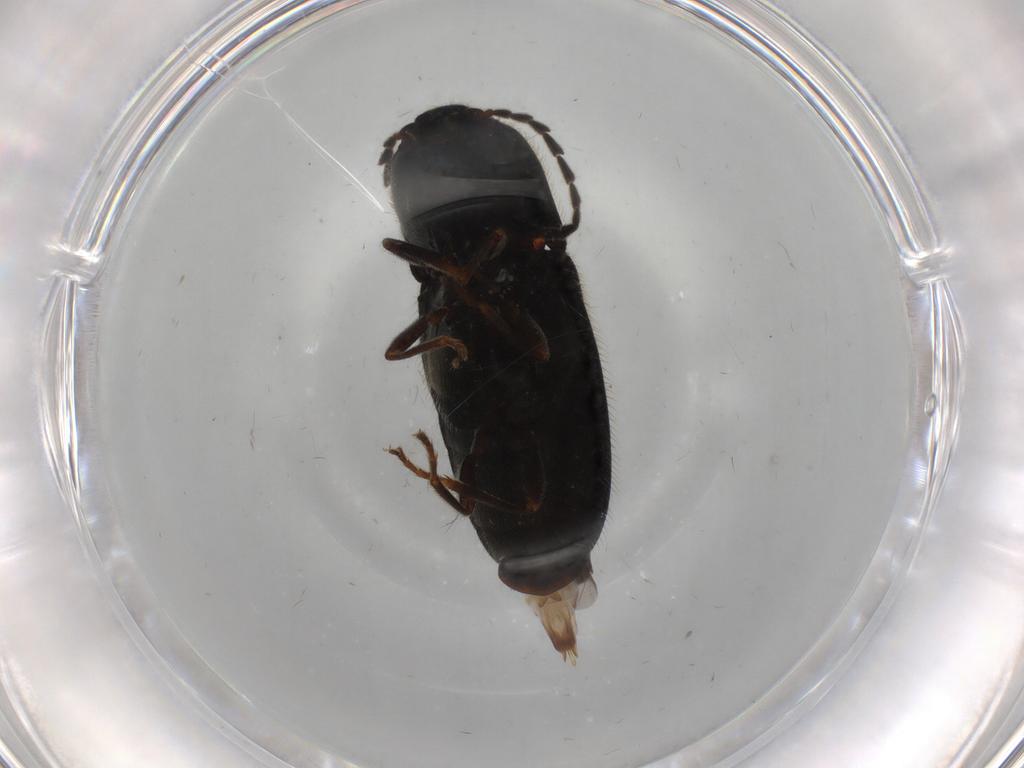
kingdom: Animalia
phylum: Arthropoda
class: Insecta
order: Coleoptera
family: Elateridae
